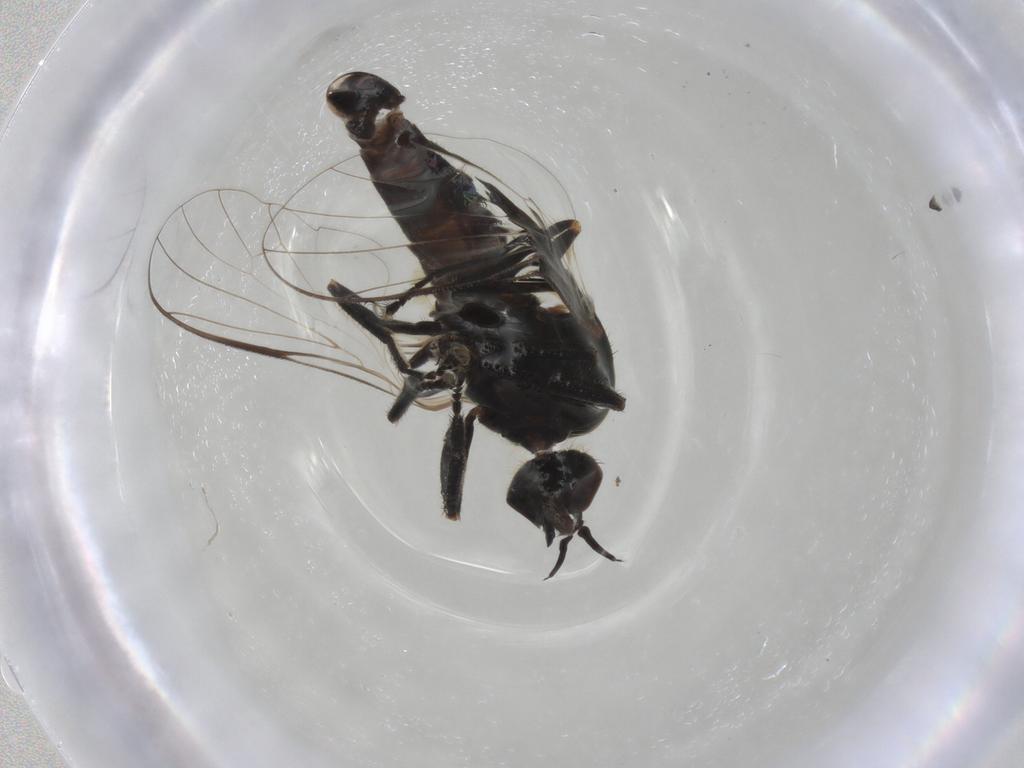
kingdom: Animalia
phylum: Arthropoda
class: Insecta
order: Diptera
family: Empididae
